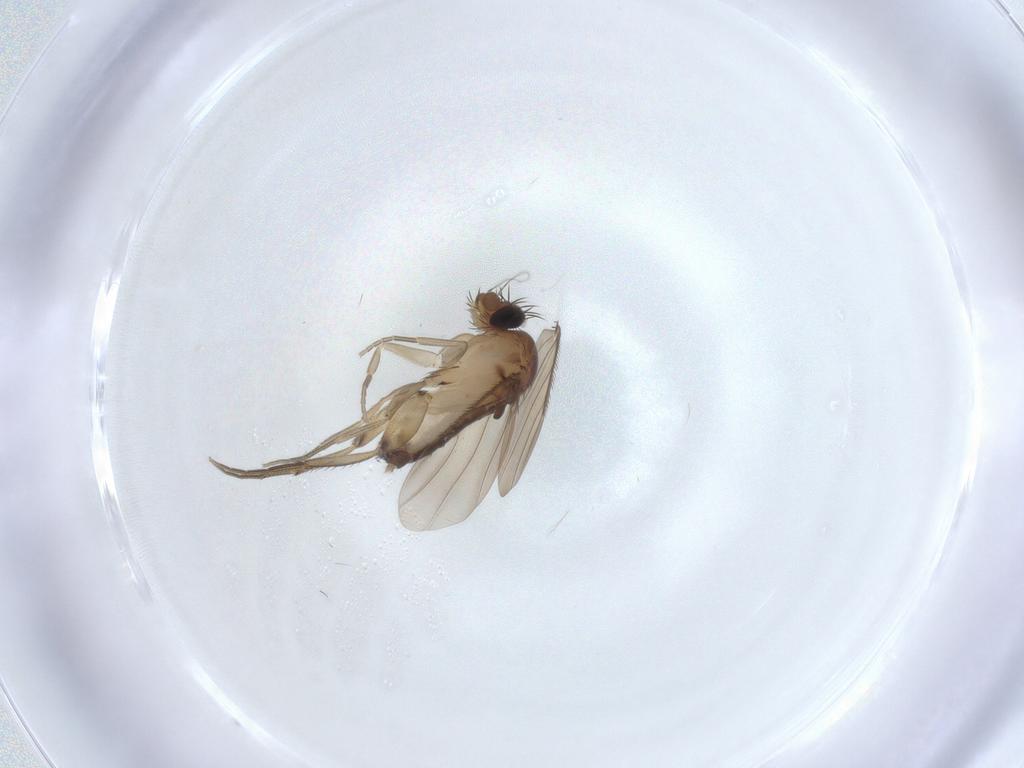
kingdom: Animalia
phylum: Arthropoda
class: Insecta
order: Diptera
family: Phoridae
